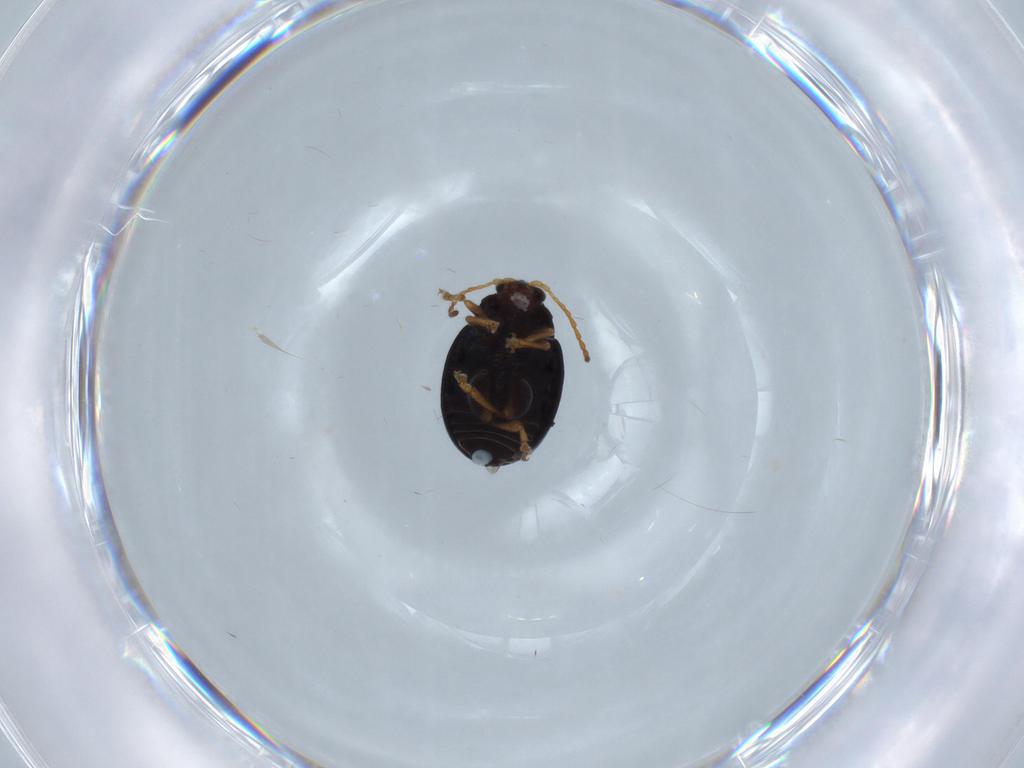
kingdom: Animalia
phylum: Arthropoda
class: Insecta
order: Coleoptera
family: Chrysomelidae
